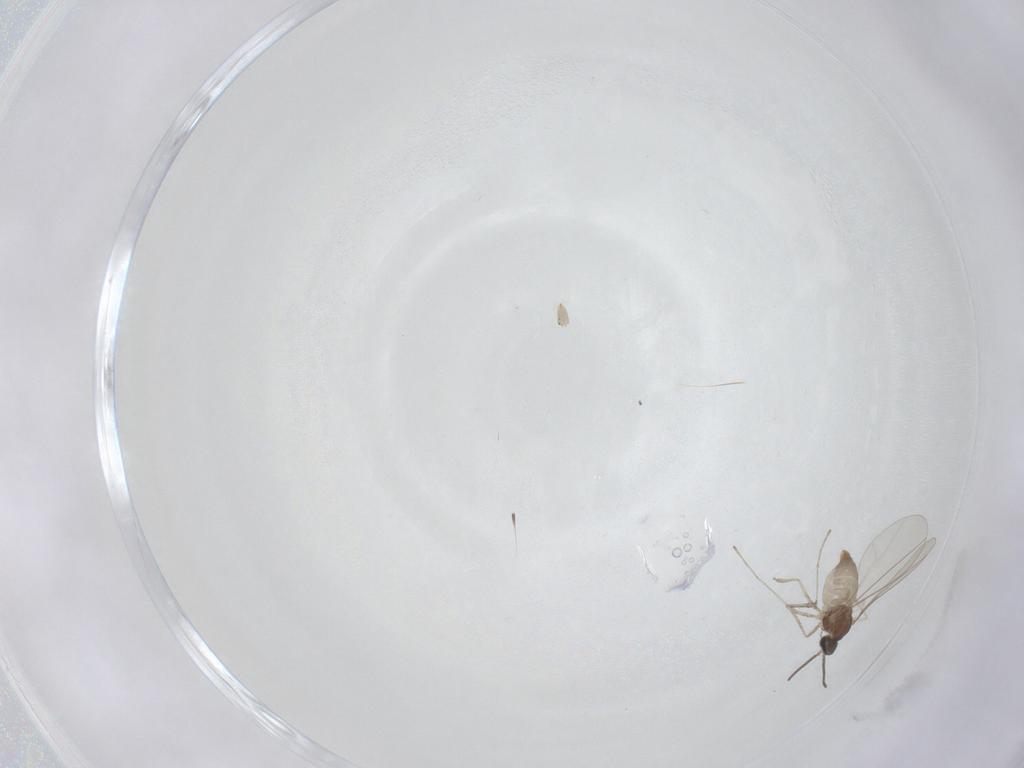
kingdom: Animalia
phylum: Arthropoda
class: Insecta
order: Diptera
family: Cecidomyiidae
